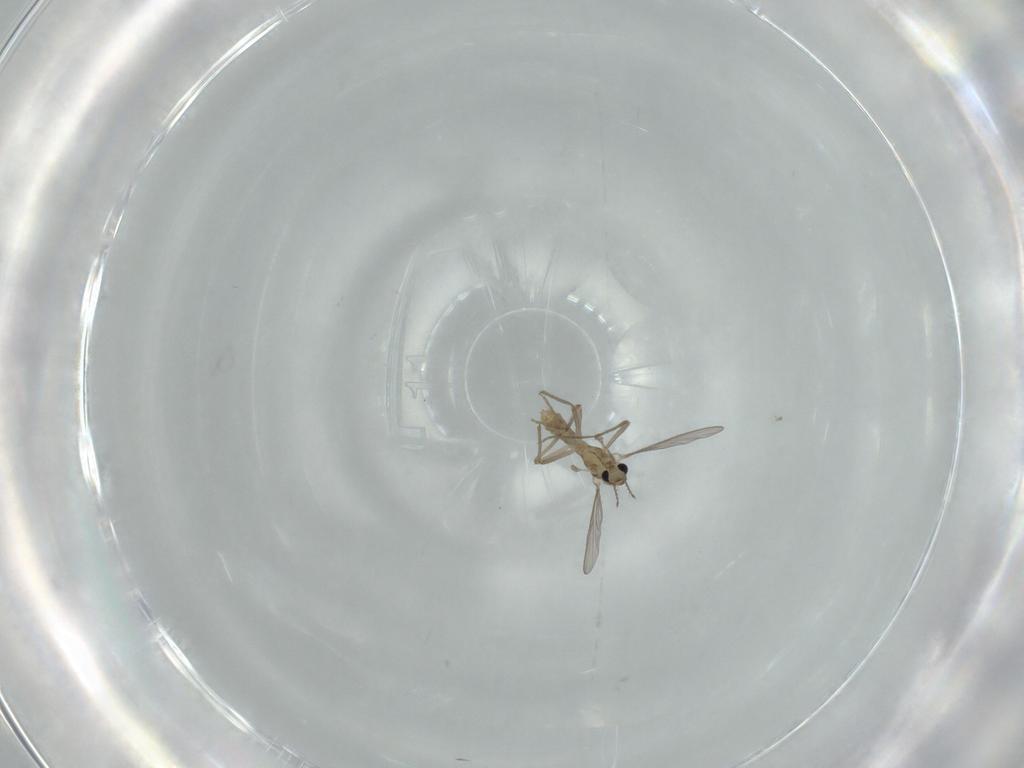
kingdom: Animalia
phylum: Arthropoda
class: Insecta
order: Diptera
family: Chironomidae
